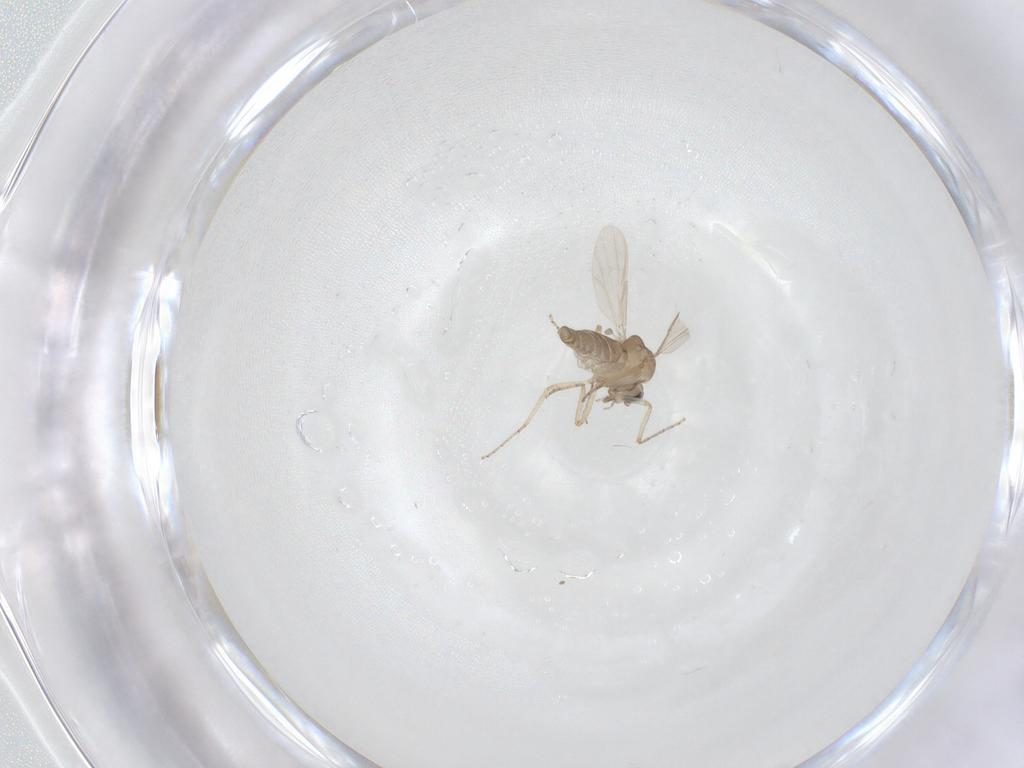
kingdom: Animalia
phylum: Arthropoda
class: Insecta
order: Diptera
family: Ceratopogonidae
